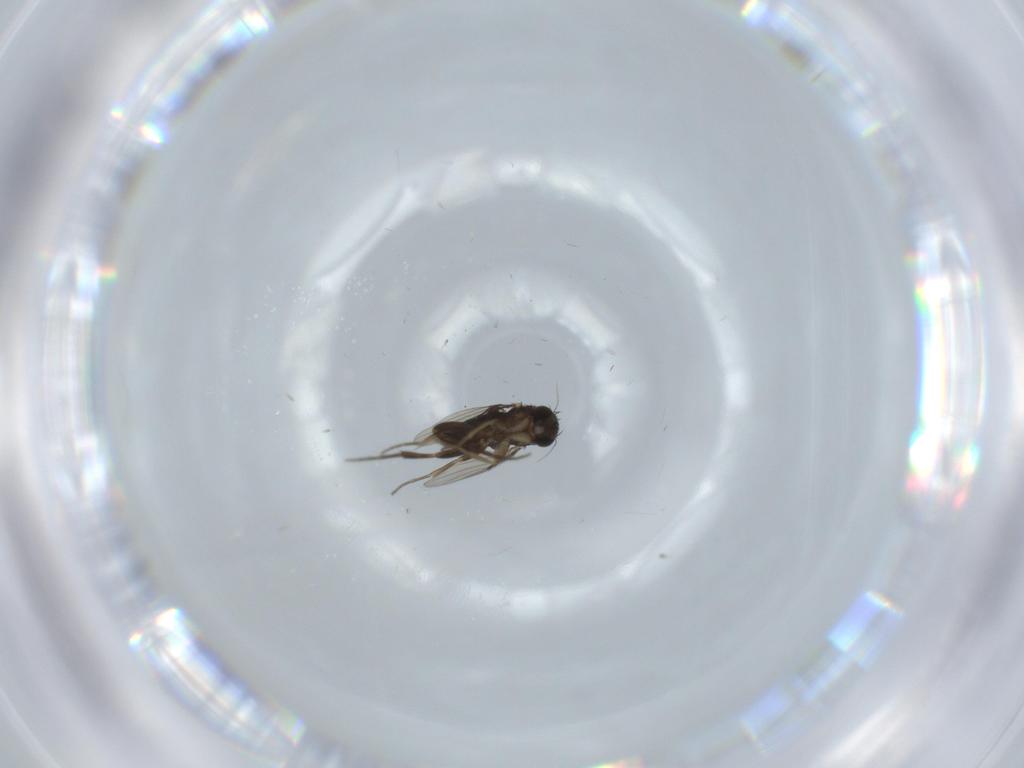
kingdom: Animalia
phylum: Arthropoda
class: Insecta
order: Diptera
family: Phoridae
